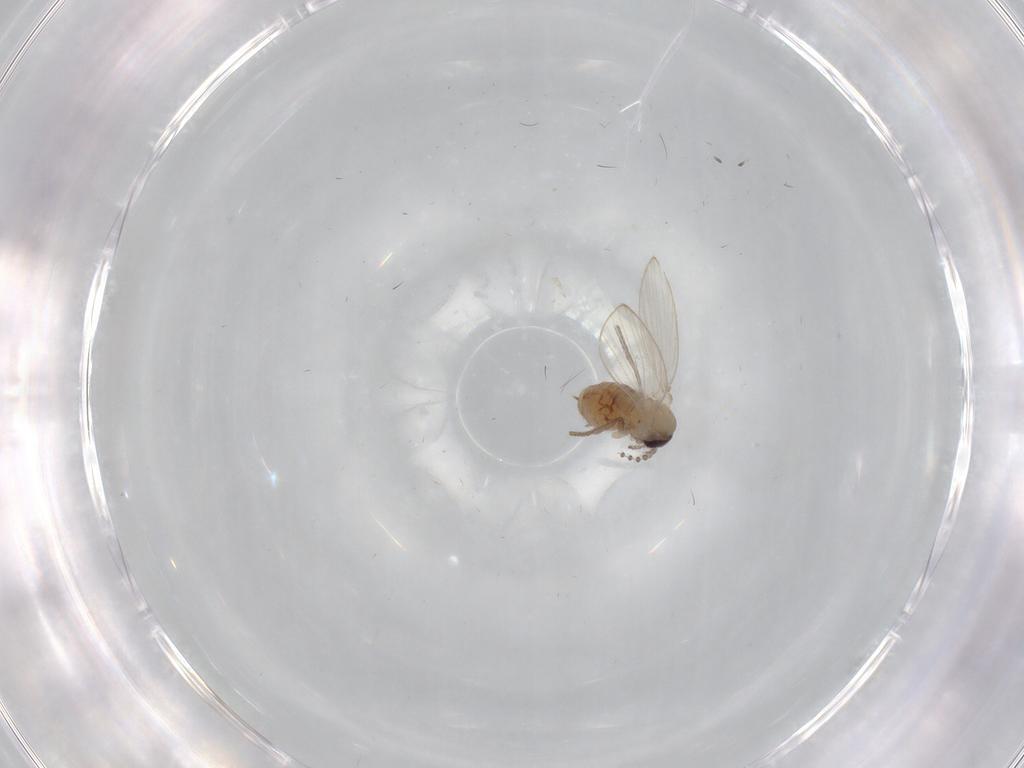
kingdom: Animalia
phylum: Arthropoda
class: Insecta
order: Diptera
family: Psychodidae
